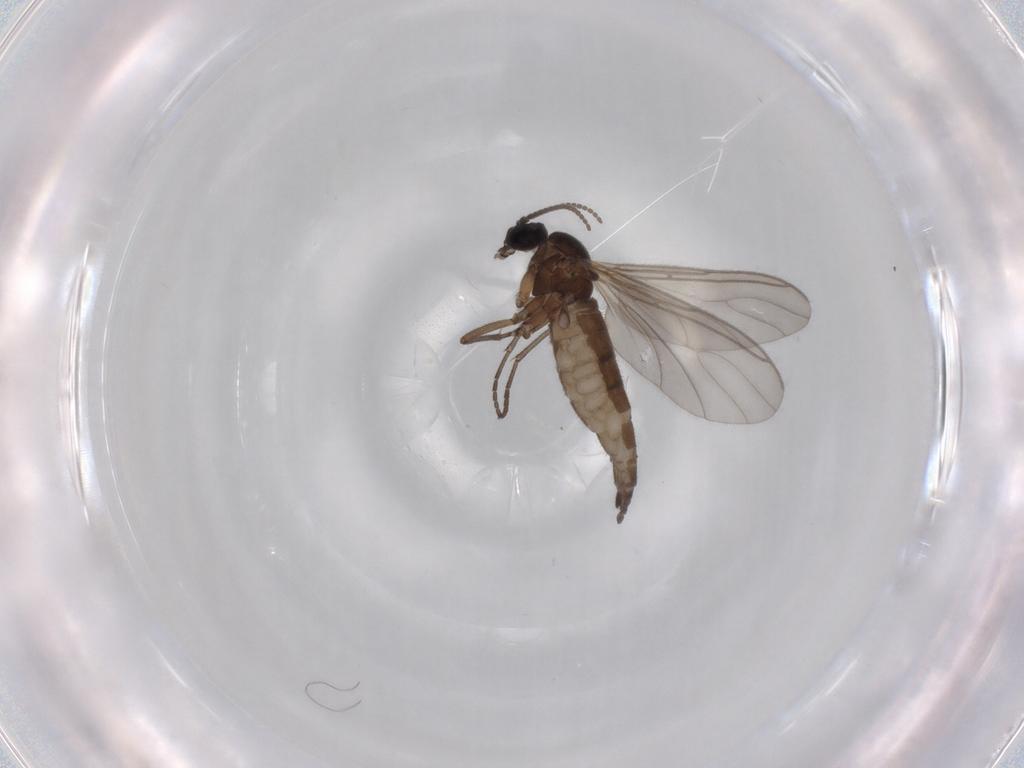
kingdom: Animalia
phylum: Arthropoda
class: Insecta
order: Diptera
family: Sciaridae
